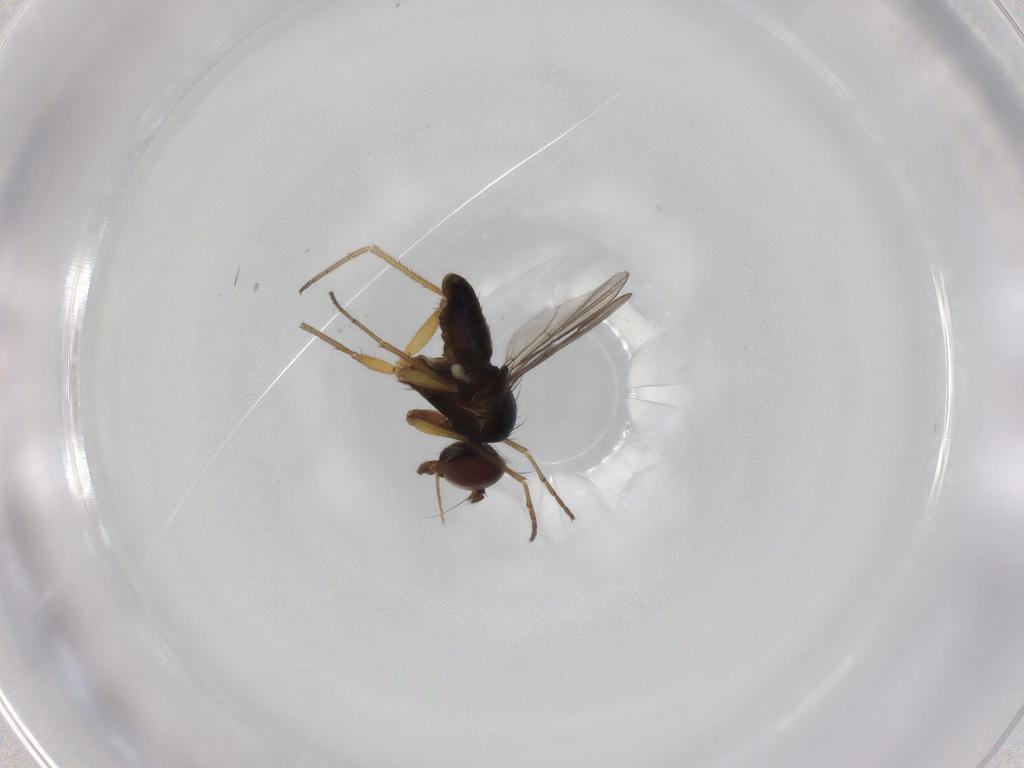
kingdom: Animalia
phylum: Arthropoda
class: Insecta
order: Diptera
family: Dolichopodidae
